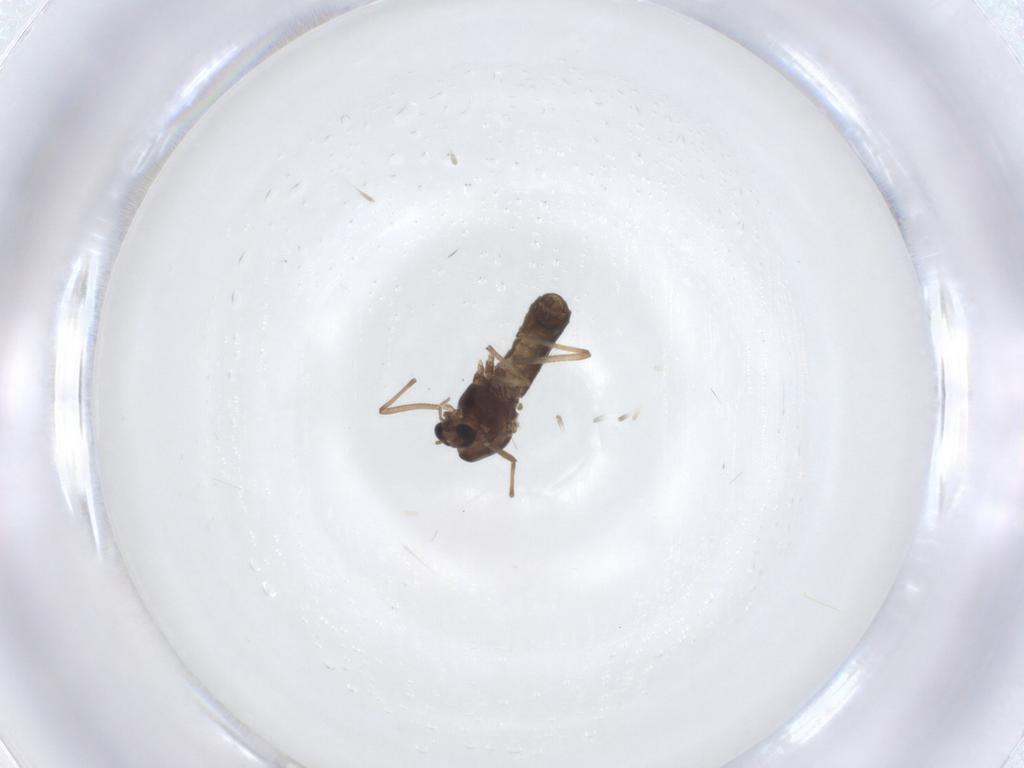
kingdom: Animalia
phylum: Arthropoda
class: Insecta
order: Diptera
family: Chironomidae
